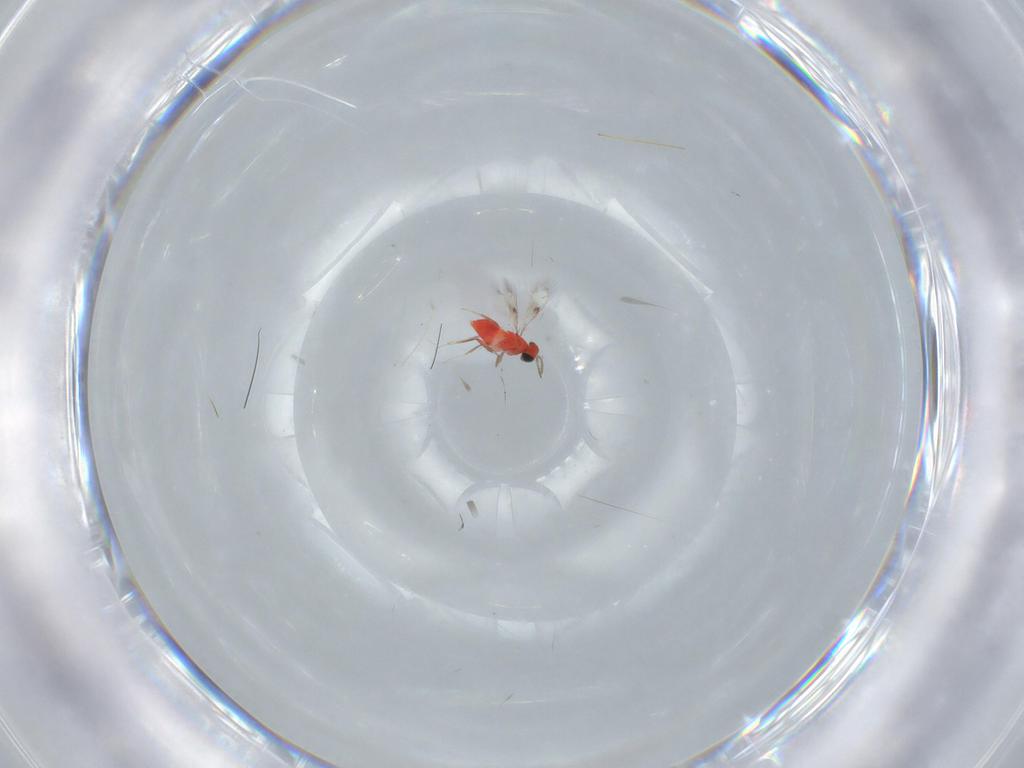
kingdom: Animalia
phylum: Arthropoda
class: Insecta
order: Hymenoptera
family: Trichogrammatidae
